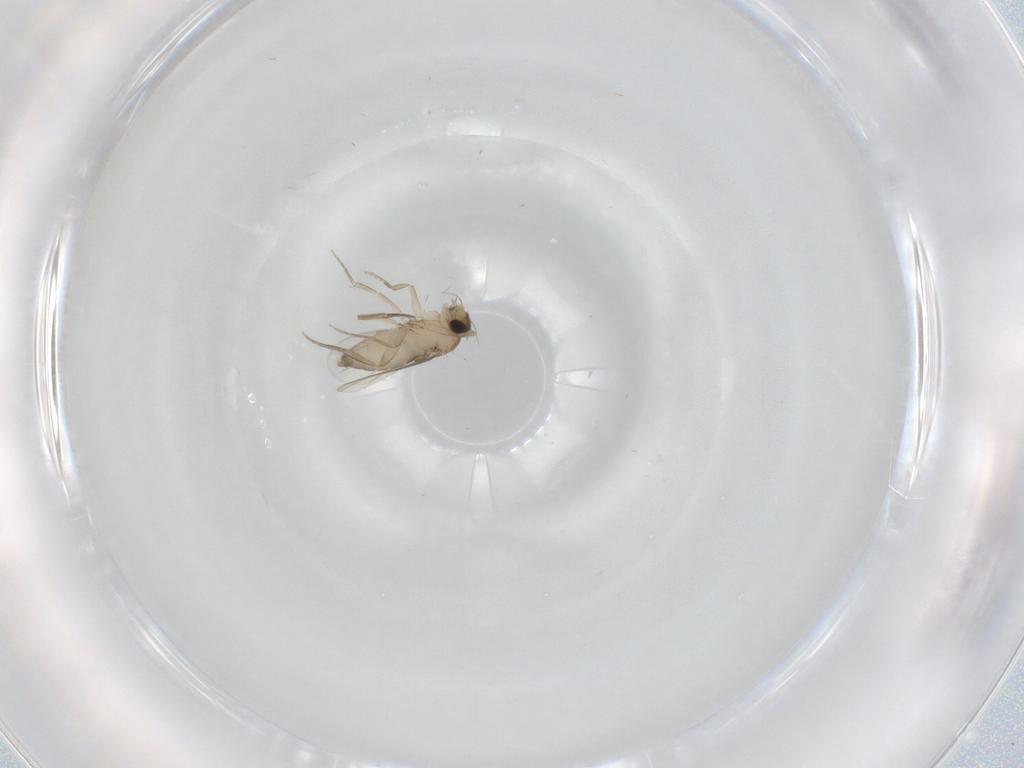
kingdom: Animalia
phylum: Arthropoda
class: Insecta
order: Diptera
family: Phoridae
